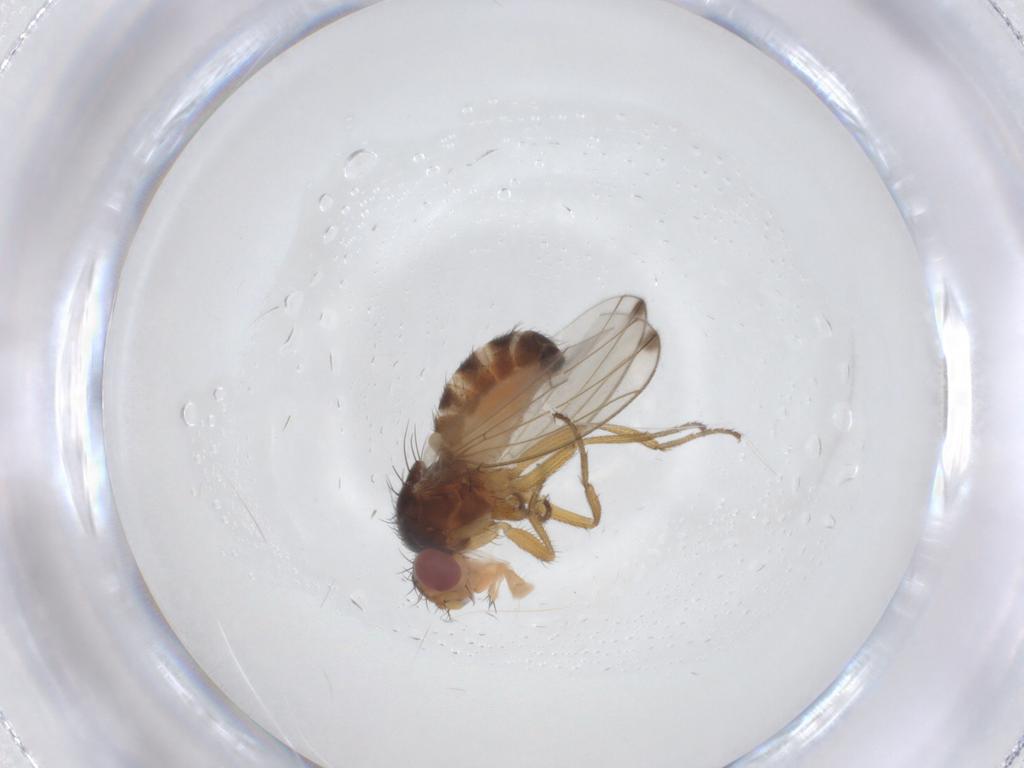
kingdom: Animalia
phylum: Arthropoda
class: Insecta
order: Diptera
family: Drosophilidae
